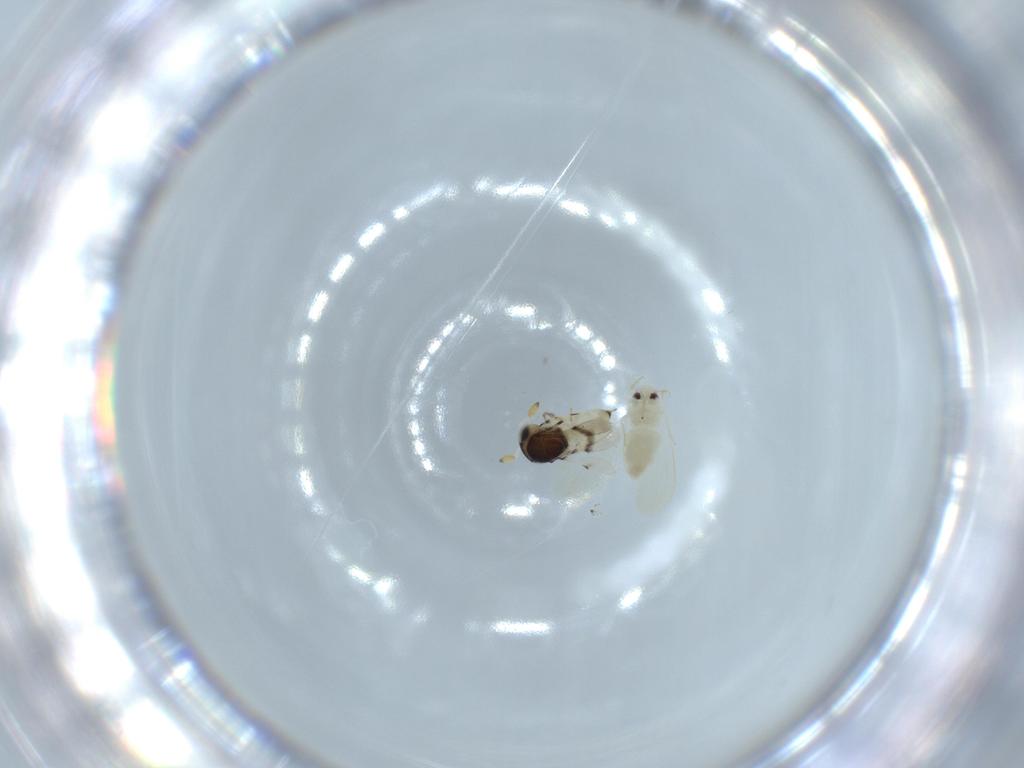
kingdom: Animalia
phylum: Arthropoda
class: Insecta
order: Hymenoptera
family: Scelionidae
